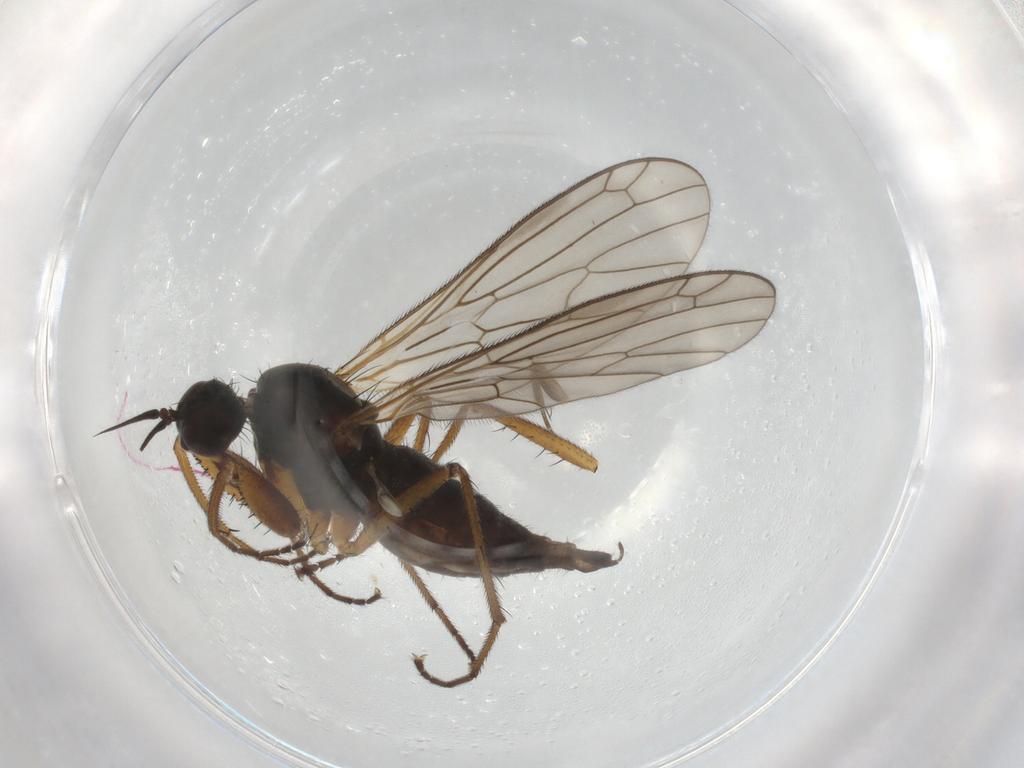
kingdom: Animalia
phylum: Arthropoda
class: Insecta
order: Diptera
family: Empididae
